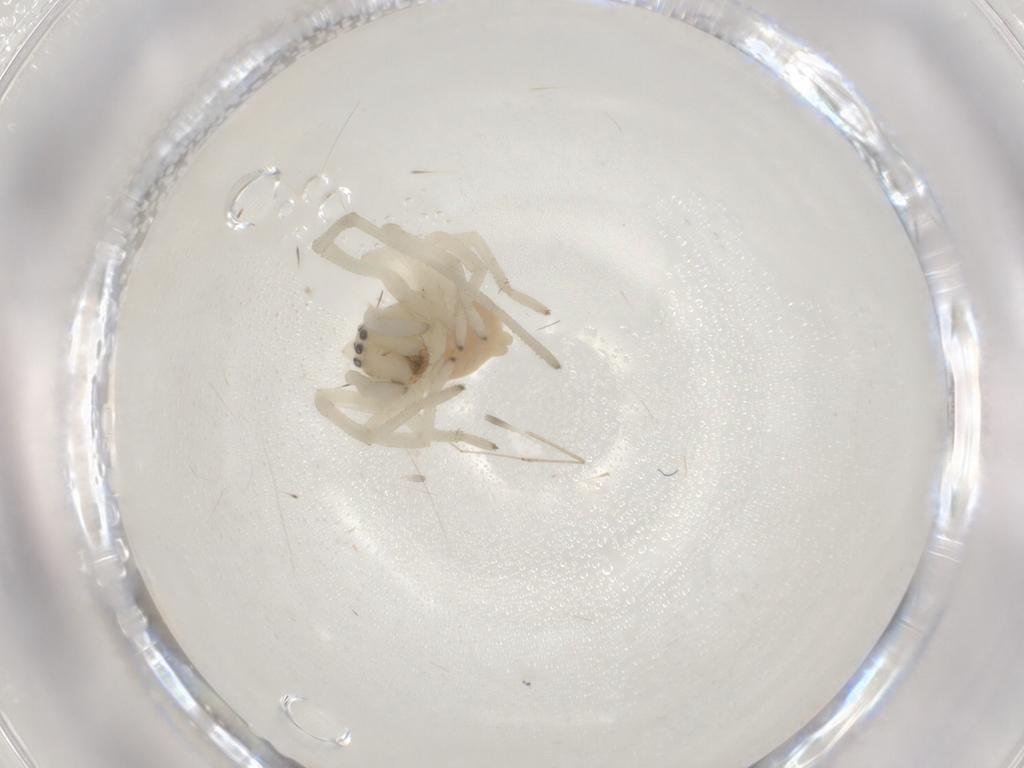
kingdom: Animalia
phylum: Arthropoda
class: Arachnida
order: Araneae
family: Cheiracanthiidae
